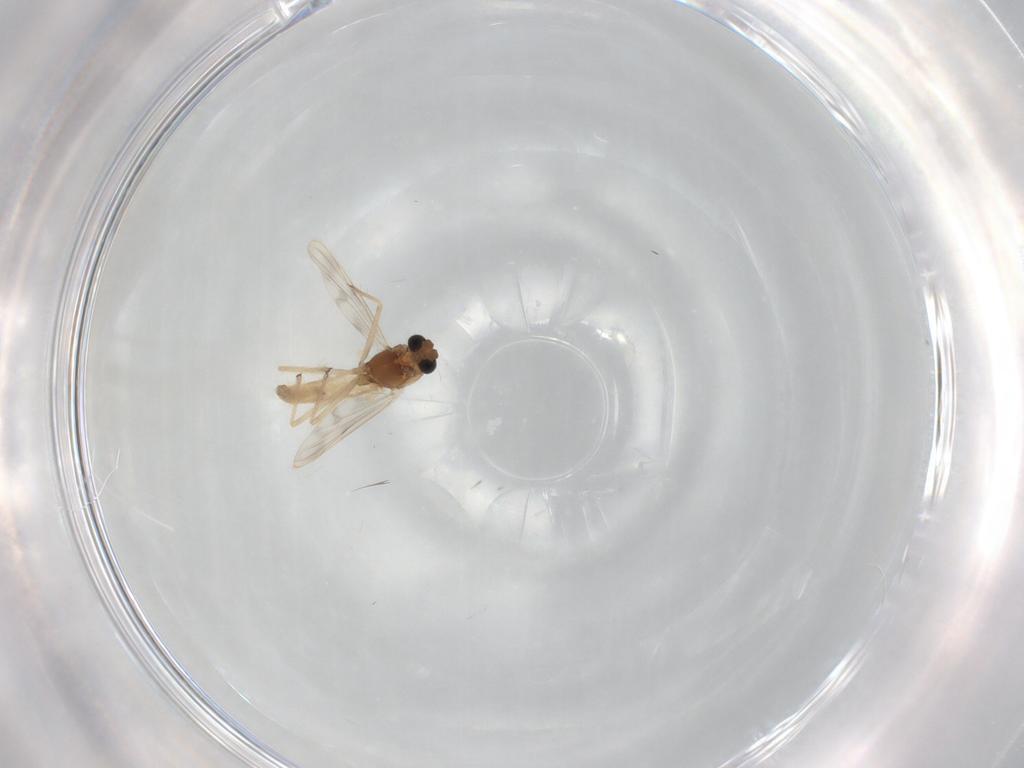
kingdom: Animalia
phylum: Arthropoda
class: Insecta
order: Diptera
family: Chironomidae
